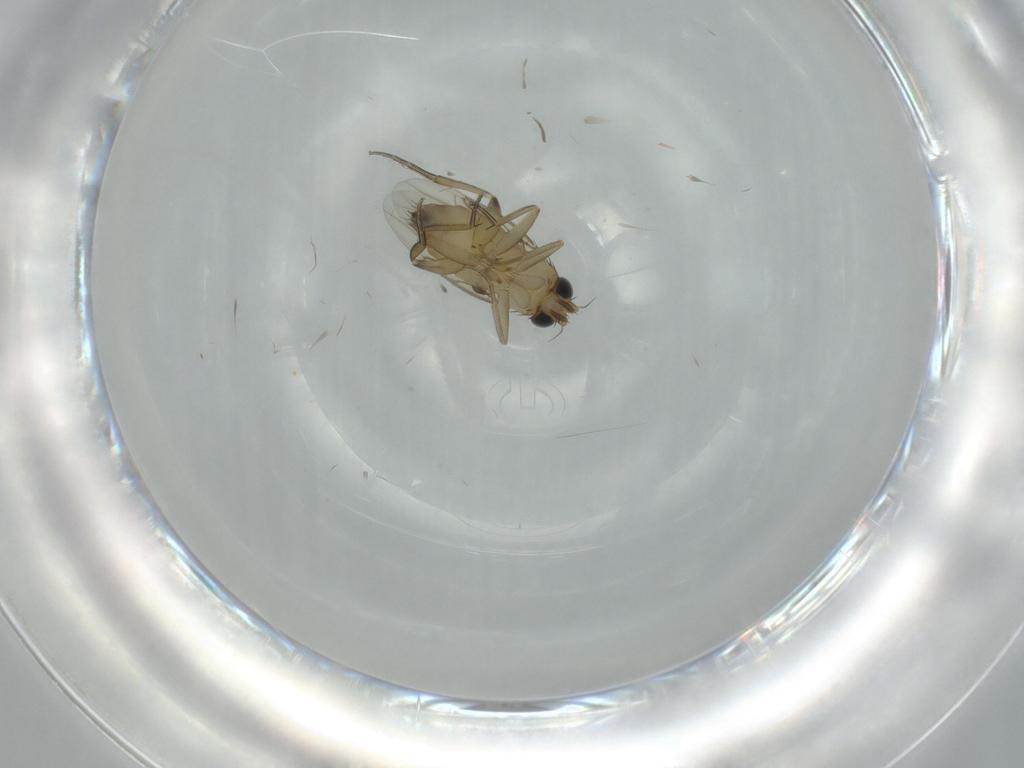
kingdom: Animalia
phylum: Arthropoda
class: Insecta
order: Diptera
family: Phoridae
